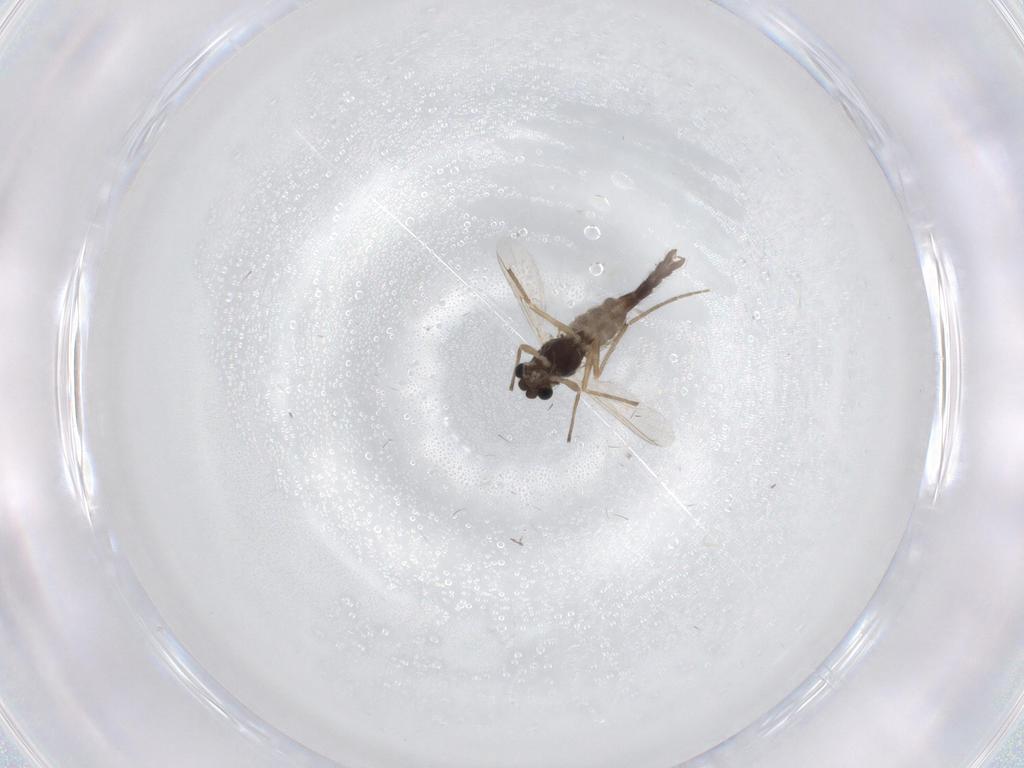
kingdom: Animalia
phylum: Arthropoda
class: Insecta
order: Diptera
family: Chironomidae
